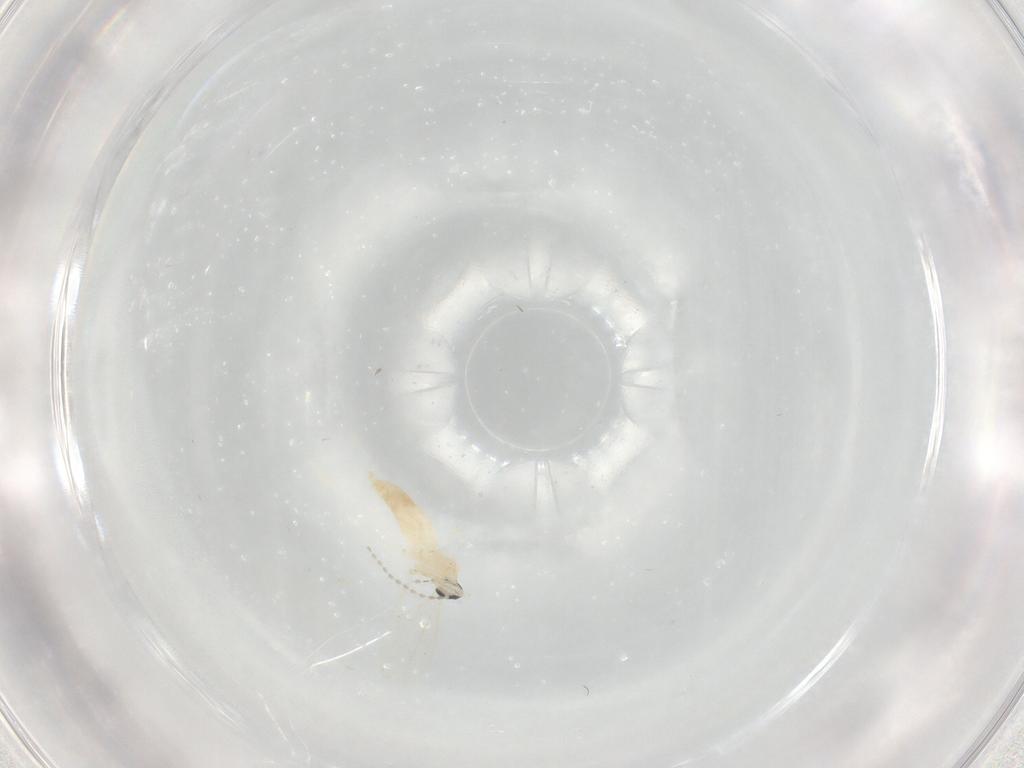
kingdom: Animalia
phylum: Arthropoda
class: Insecta
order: Diptera
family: Cecidomyiidae
